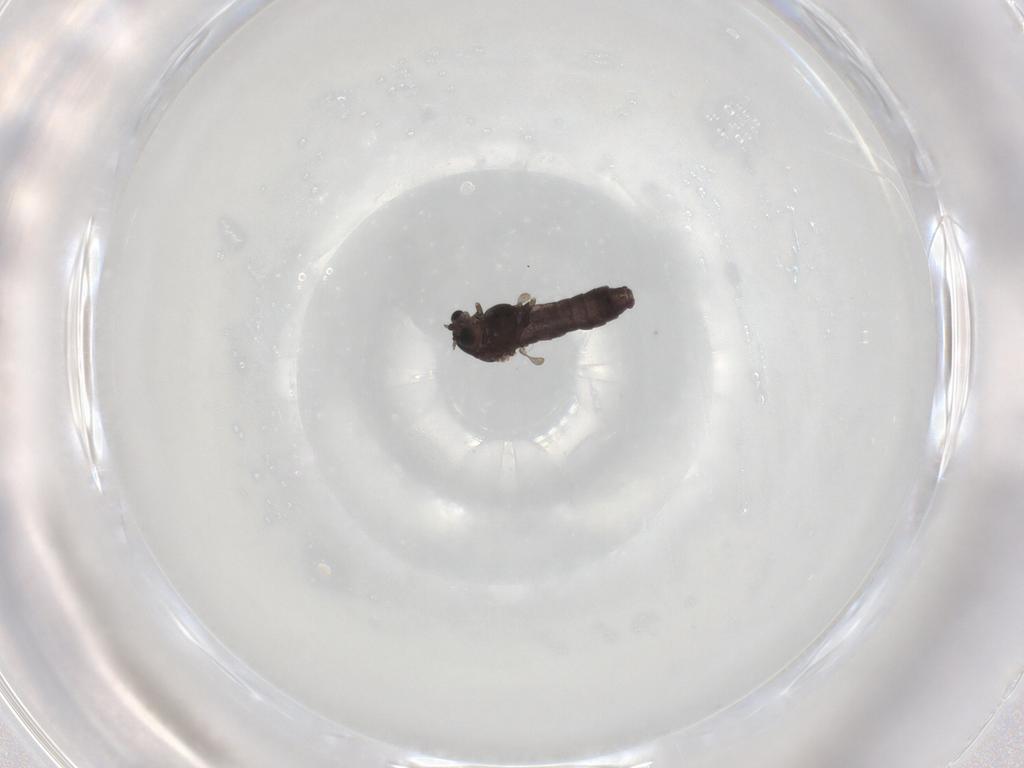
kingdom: Animalia
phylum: Arthropoda
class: Insecta
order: Diptera
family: Chironomidae
